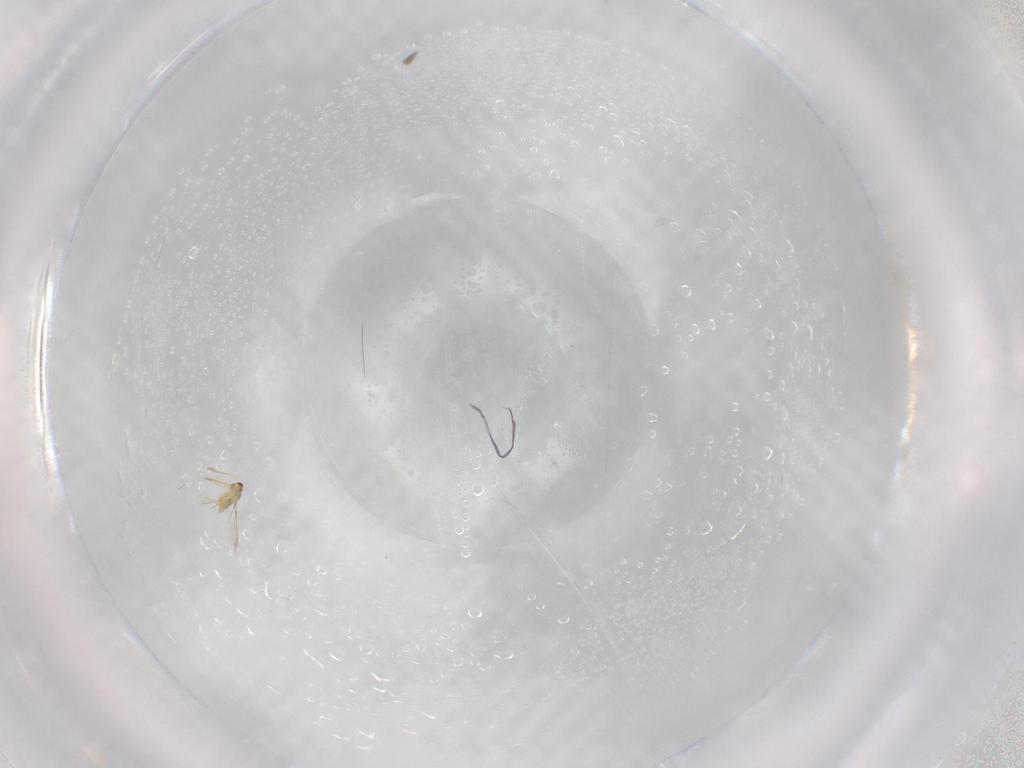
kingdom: Animalia
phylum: Arthropoda
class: Insecta
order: Hymenoptera
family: Mymaridae
